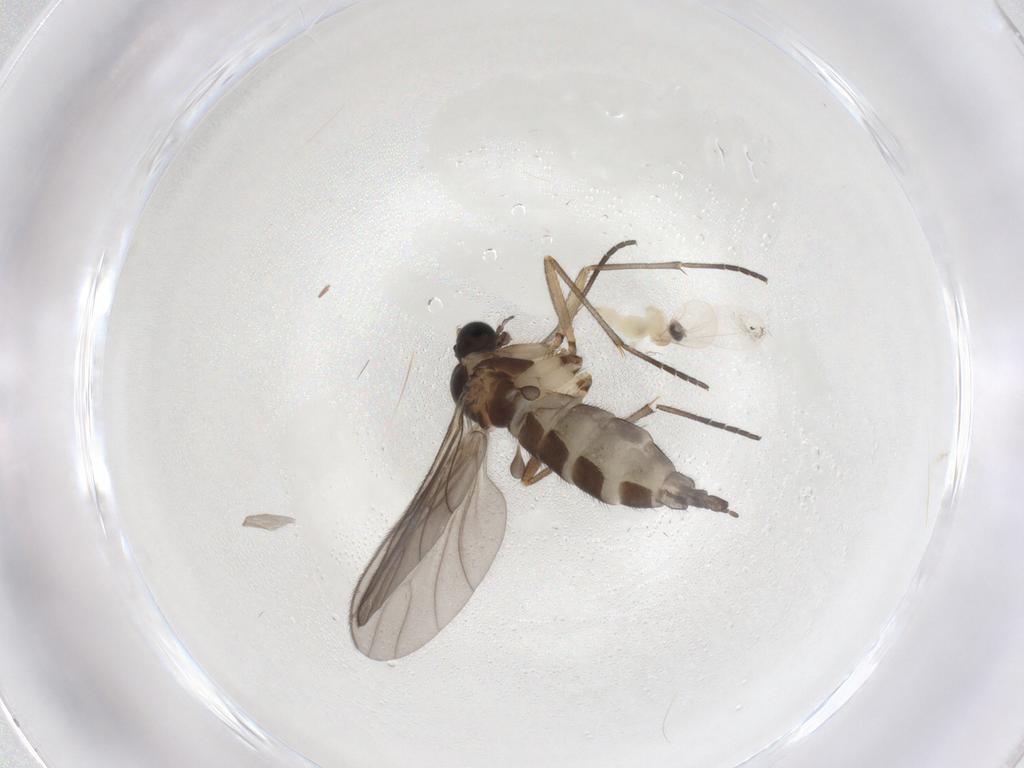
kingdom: Animalia
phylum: Arthropoda
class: Insecta
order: Diptera
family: Sciaridae
